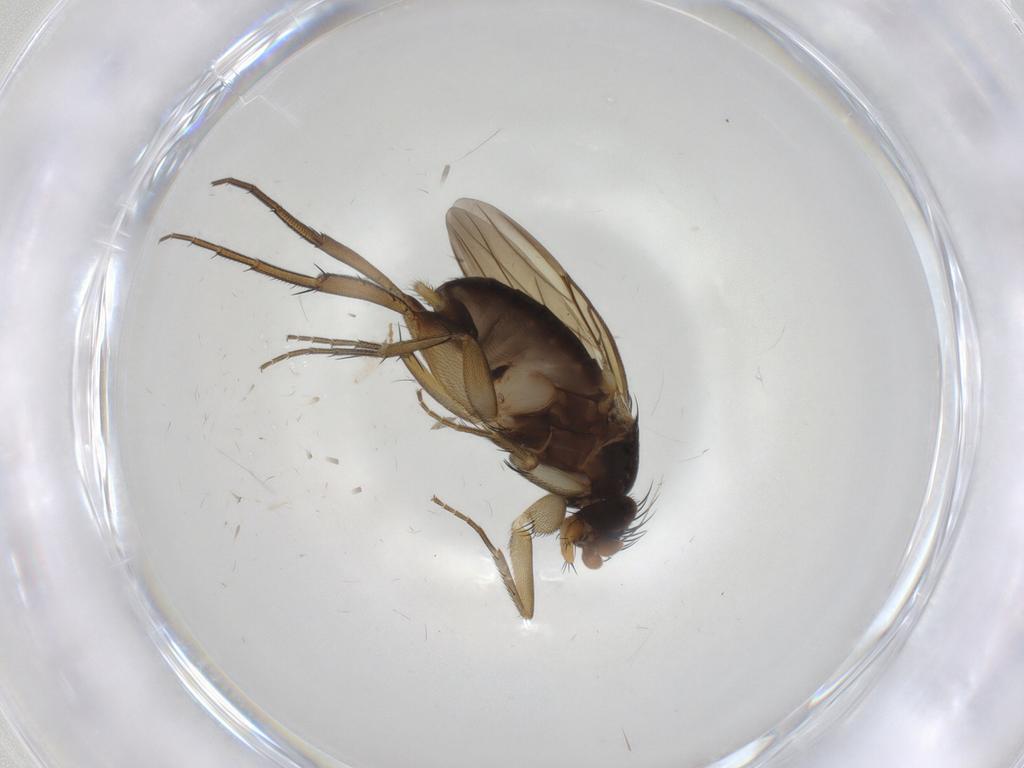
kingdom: Animalia
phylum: Arthropoda
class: Insecta
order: Diptera
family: Phoridae
